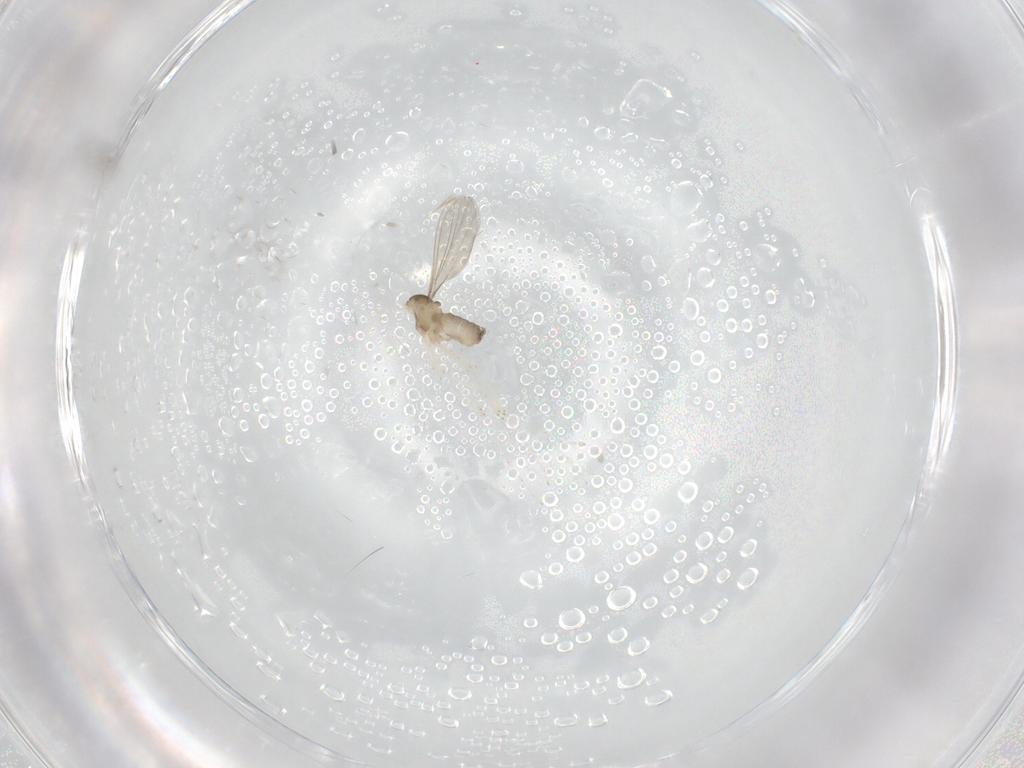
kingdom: Animalia
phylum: Arthropoda
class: Insecta
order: Diptera
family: Mycetophilidae
